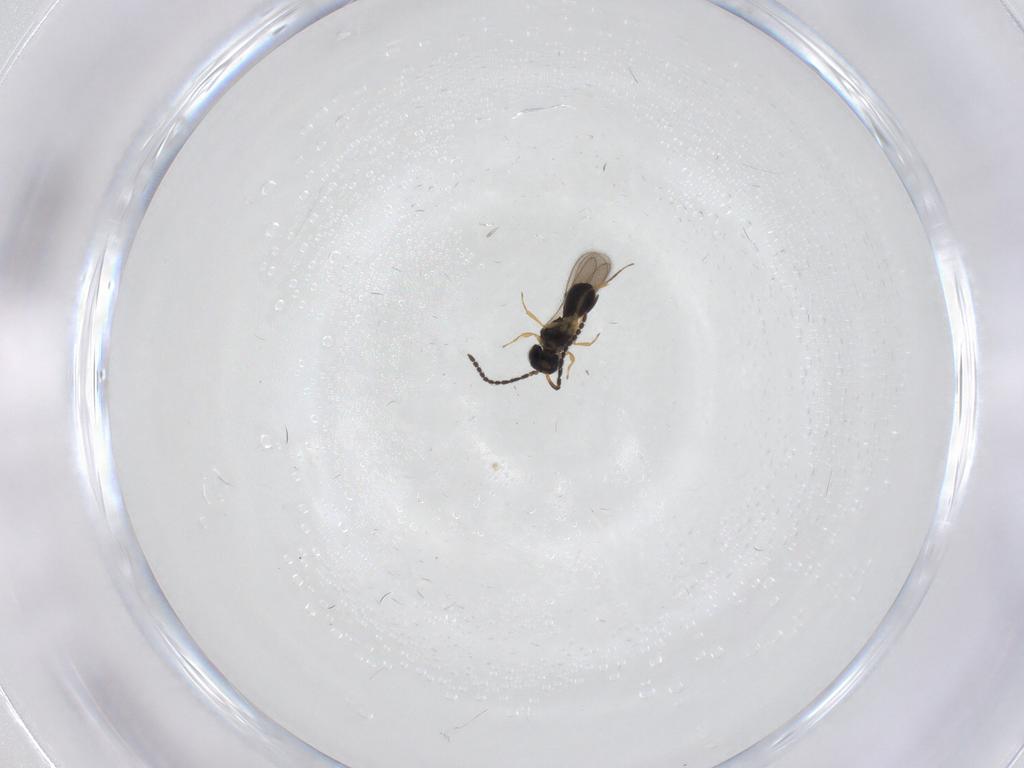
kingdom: Animalia
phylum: Arthropoda
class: Insecta
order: Hymenoptera
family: Scelionidae
